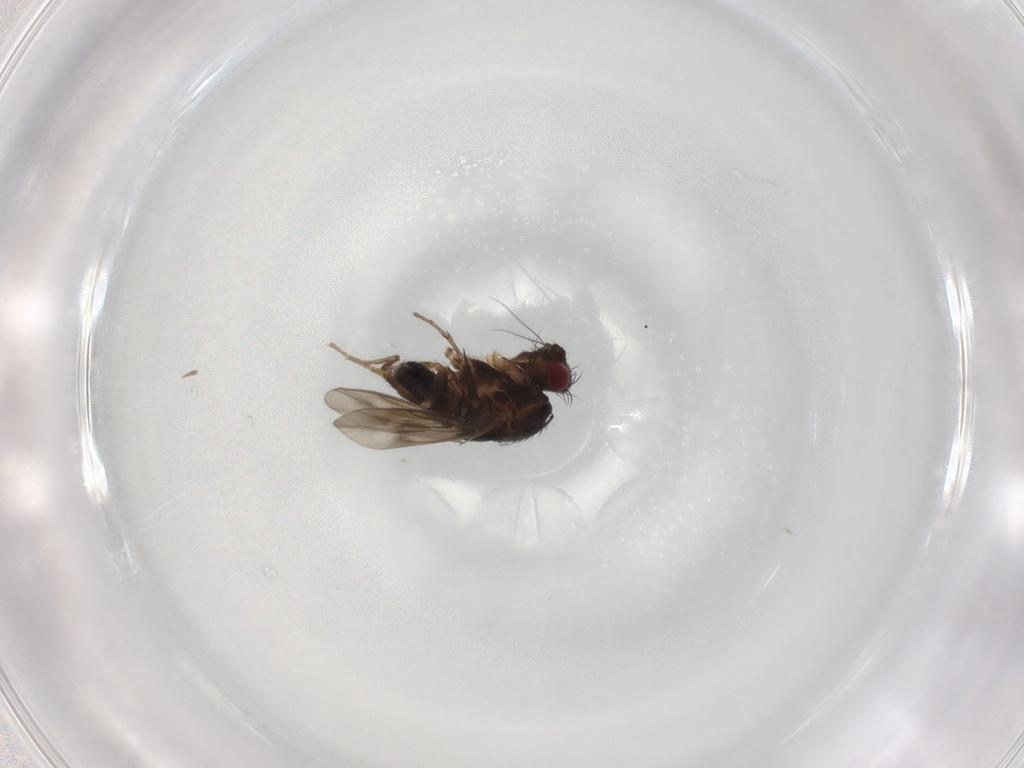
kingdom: Animalia
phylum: Arthropoda
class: Insecta
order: Diptera
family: Sphaeroceridae
